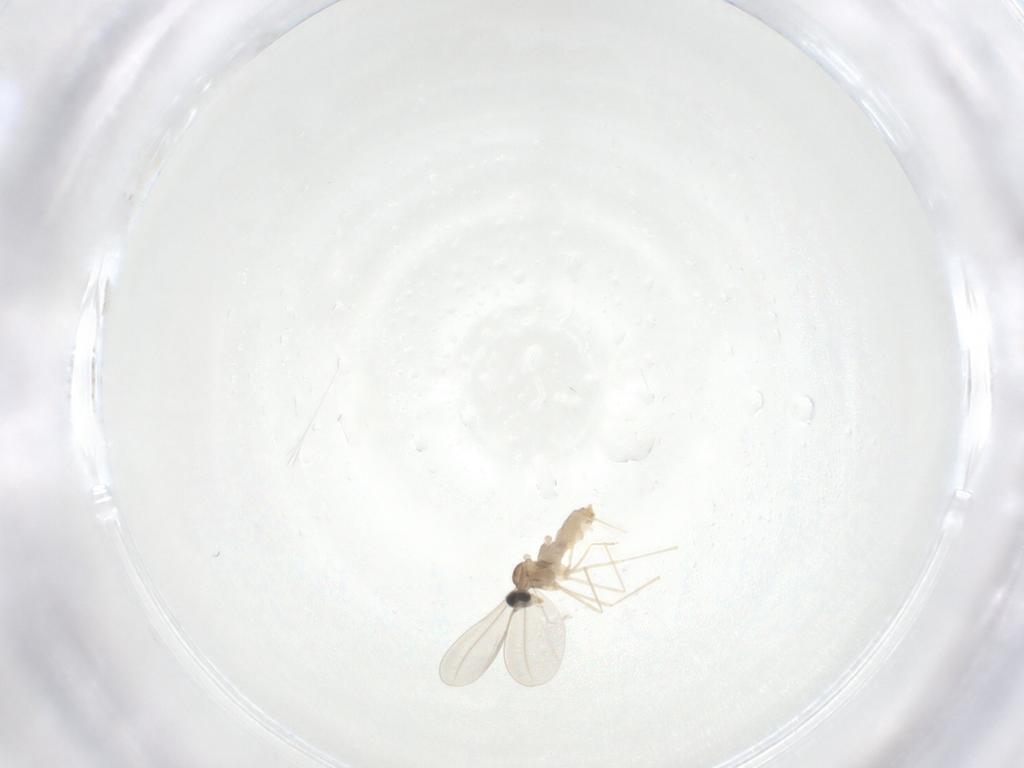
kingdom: Animalia
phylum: Arthropoda
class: Insecta
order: Diptera
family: Cecidomyiidae
